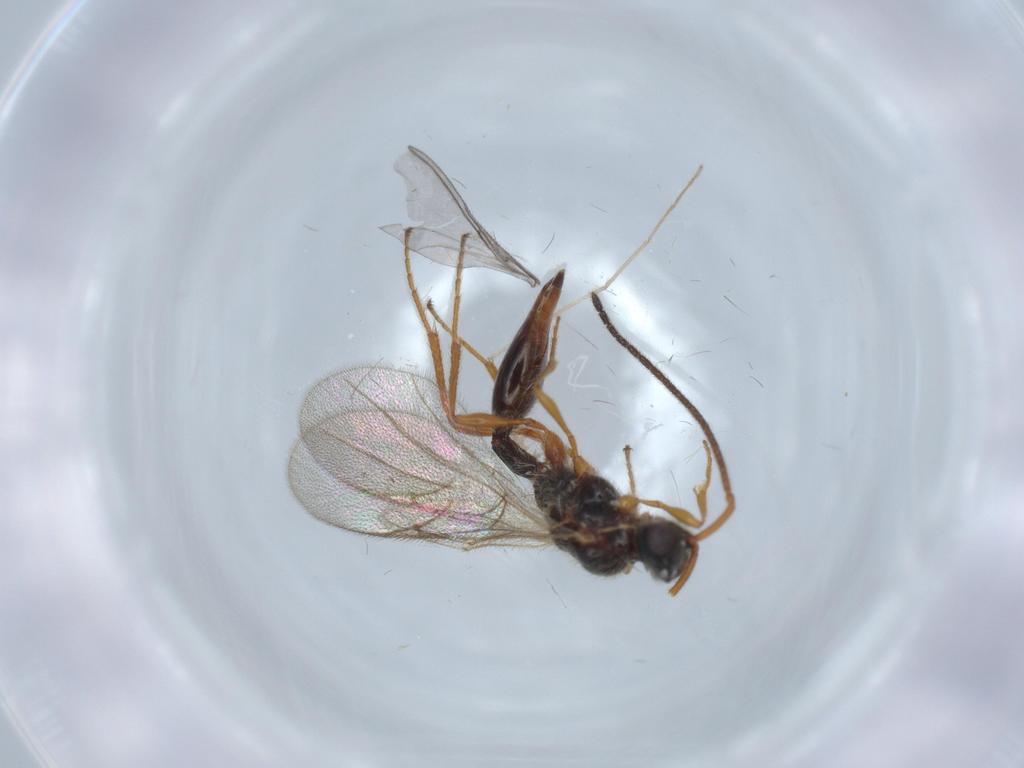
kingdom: Animalia
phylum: Arthropoda
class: Insecta
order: Hymenoptera
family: Diapriidae
